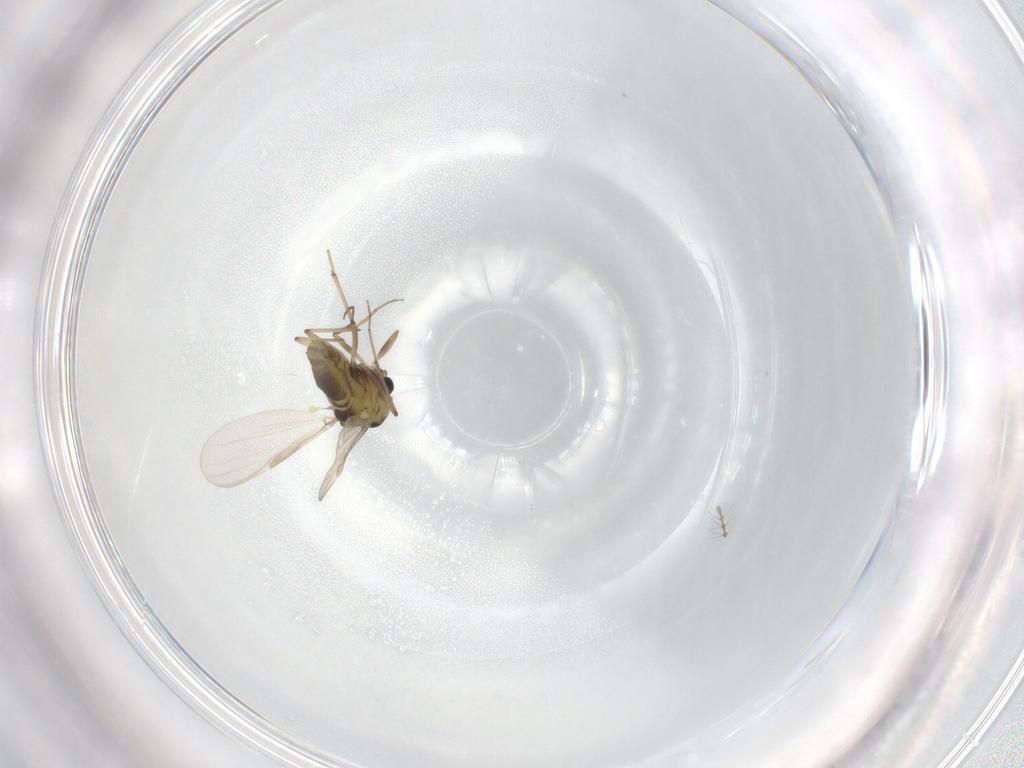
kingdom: Animalia
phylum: Arthropoda
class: Insecta
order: Diptera
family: Chironomidae
